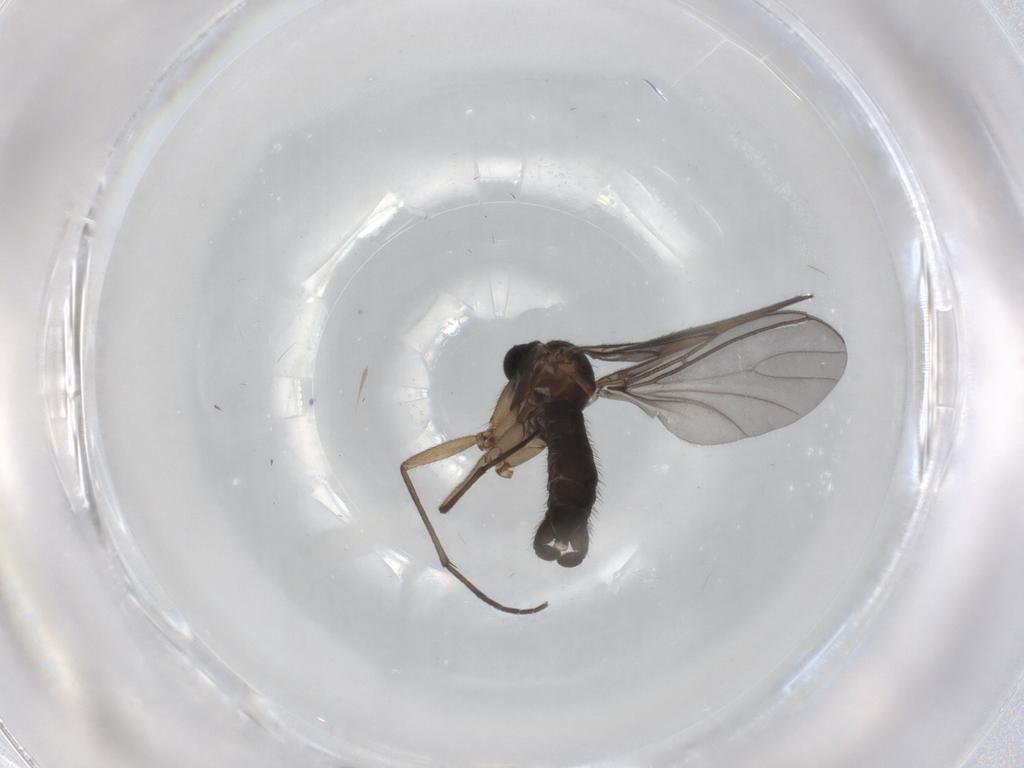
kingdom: Animalia
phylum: Arthropoda
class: Insecta
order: Diptera
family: Sciaridae
